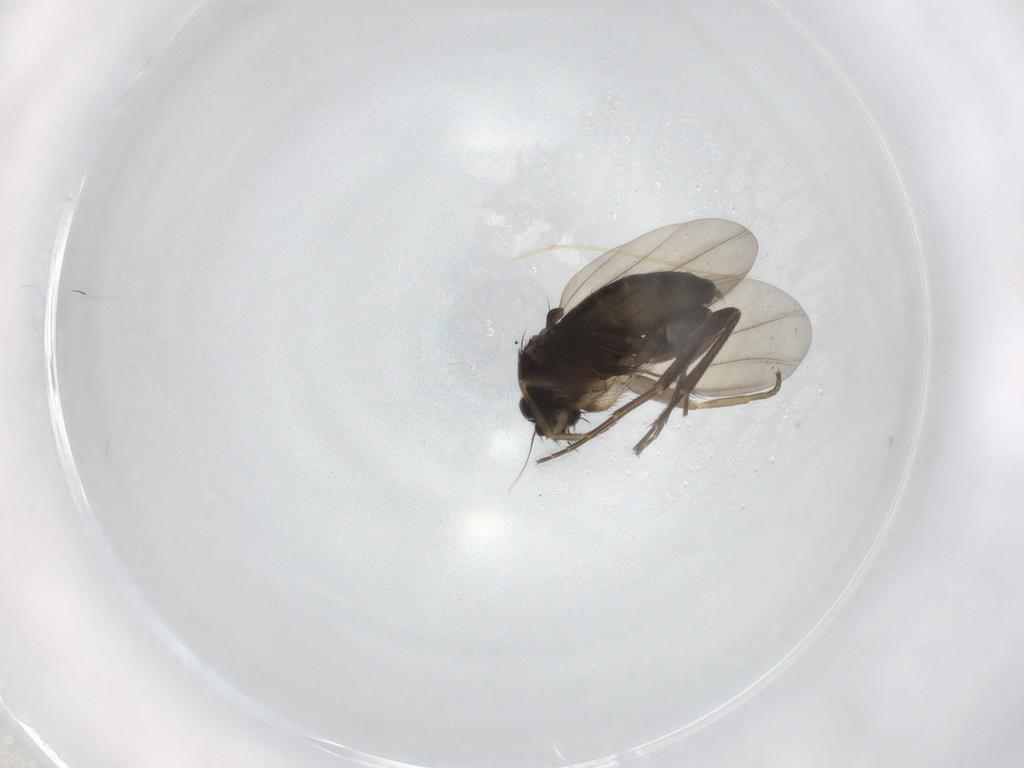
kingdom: Animalia
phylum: Arthropoda
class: Insecta
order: Diptera
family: Phoridae
